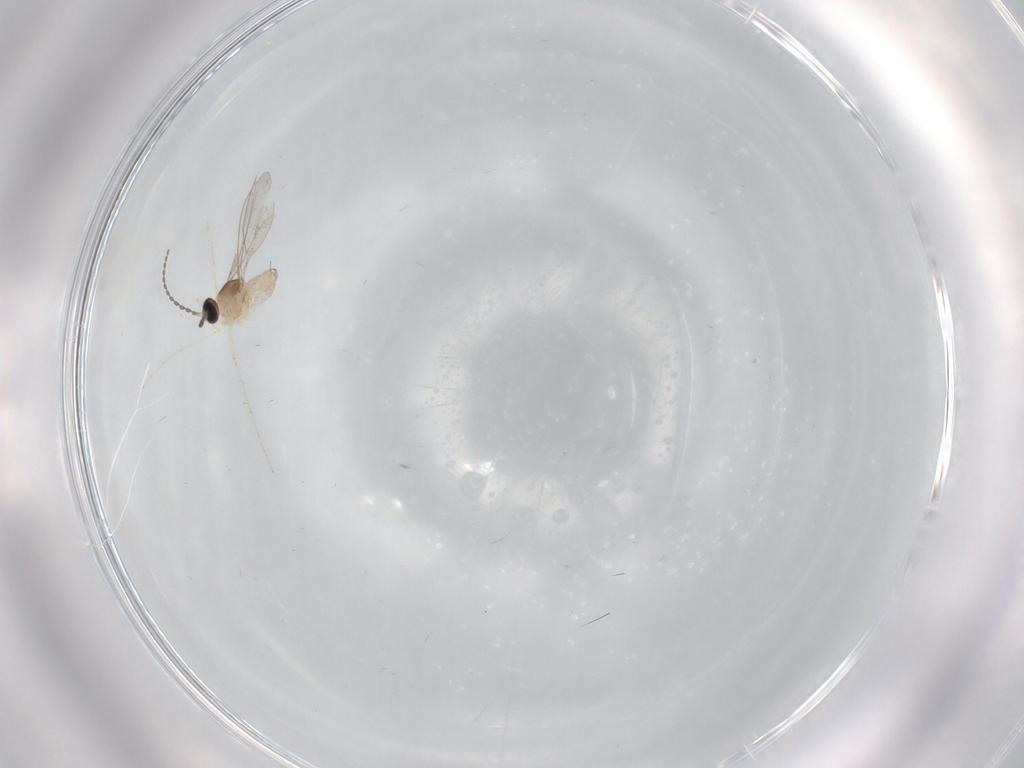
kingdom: Animalia
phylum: Arthropoda
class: Insecta
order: Diptera
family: Cecidomyiidae
